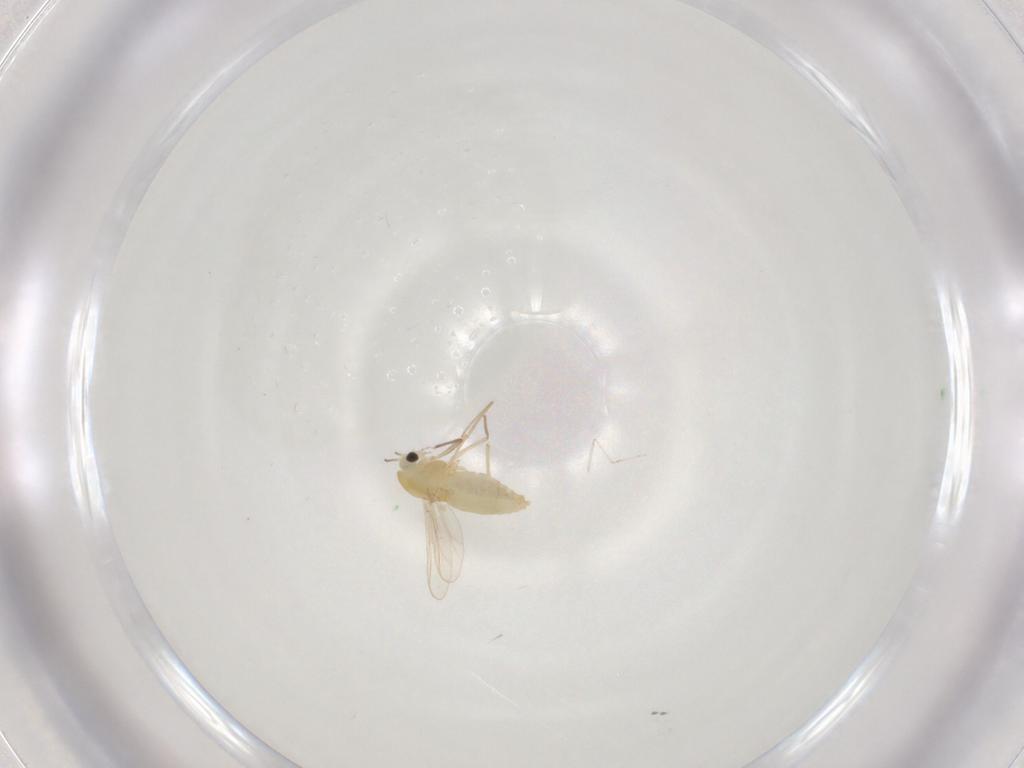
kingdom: Animalia
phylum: Arthropoda
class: Insecta
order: Diptera
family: Chironomidae
